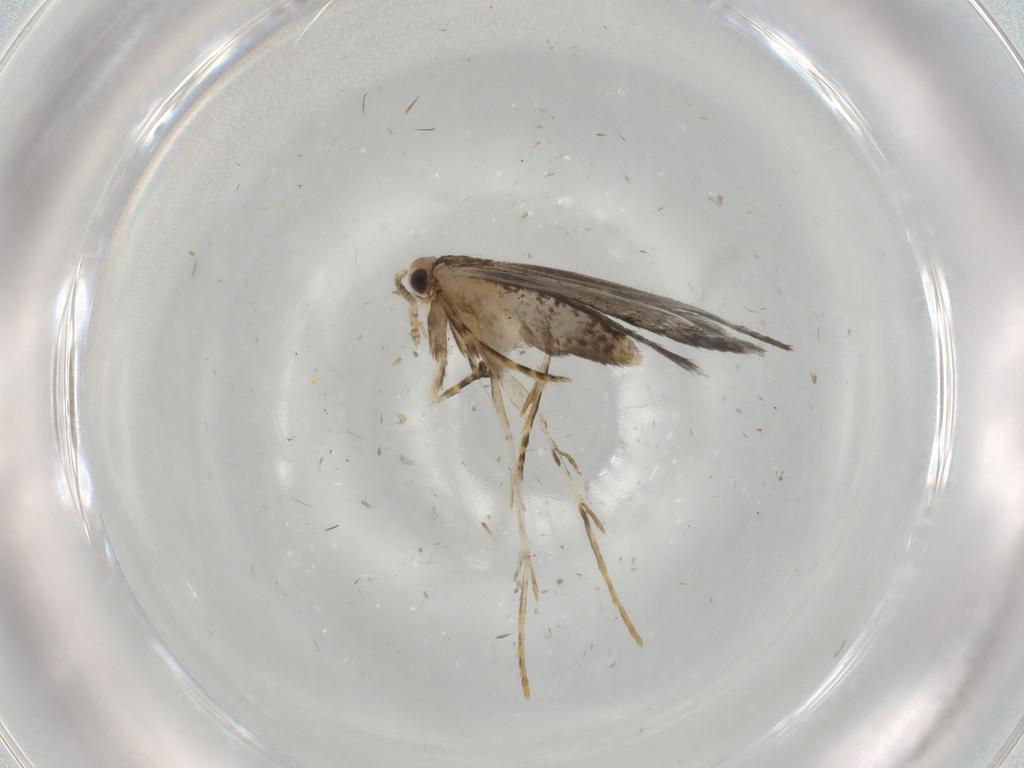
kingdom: Animalia
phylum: Arthropoda
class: Insecta
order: Lepidoptera
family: Tineidae
